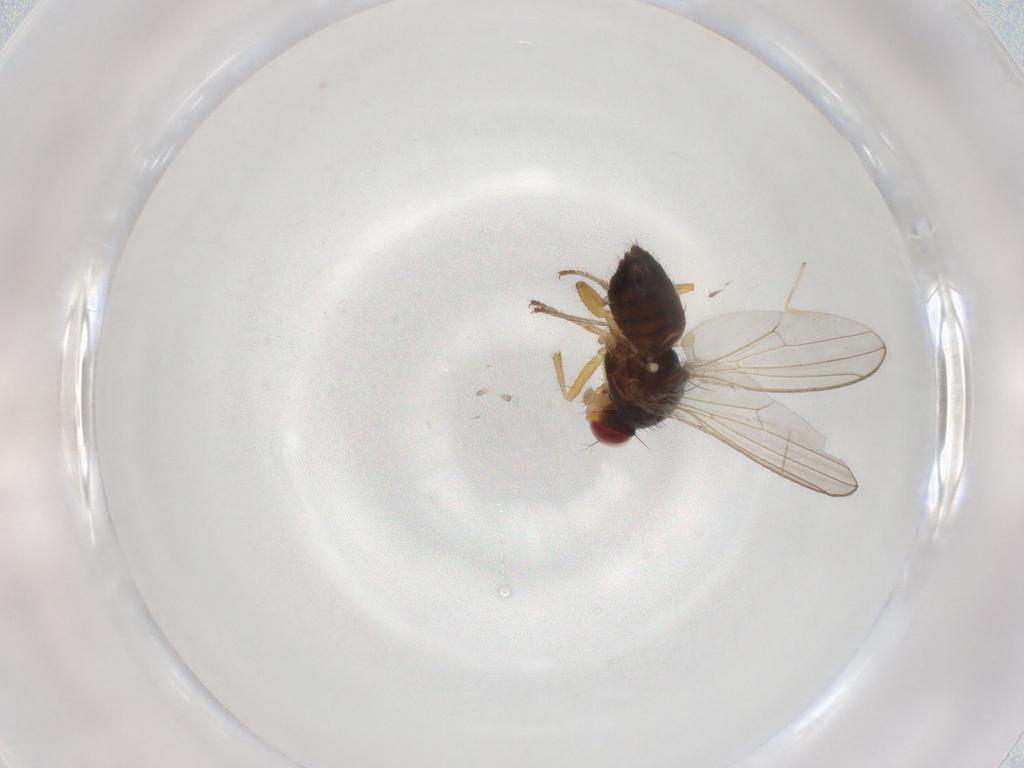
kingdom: Animalia
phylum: Arthropoda
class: Insecta
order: Diptera
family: Drosophilidae
